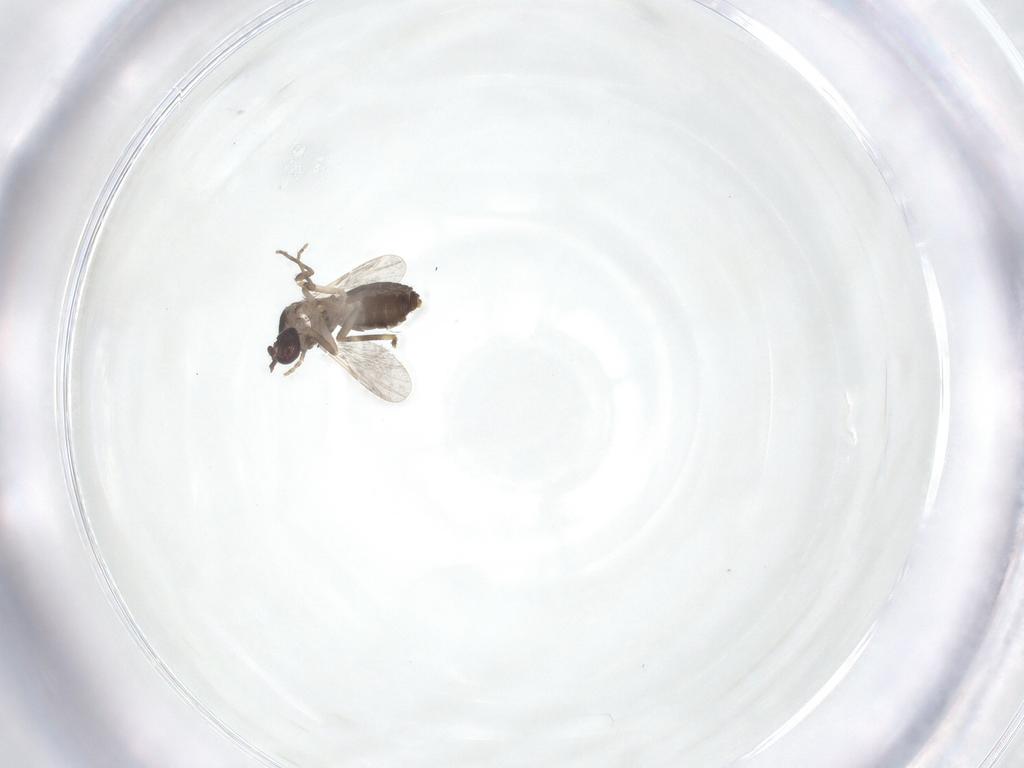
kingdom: Animalia
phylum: Arthropoda
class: Insecta
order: Diptera
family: Ceratopogonidae
